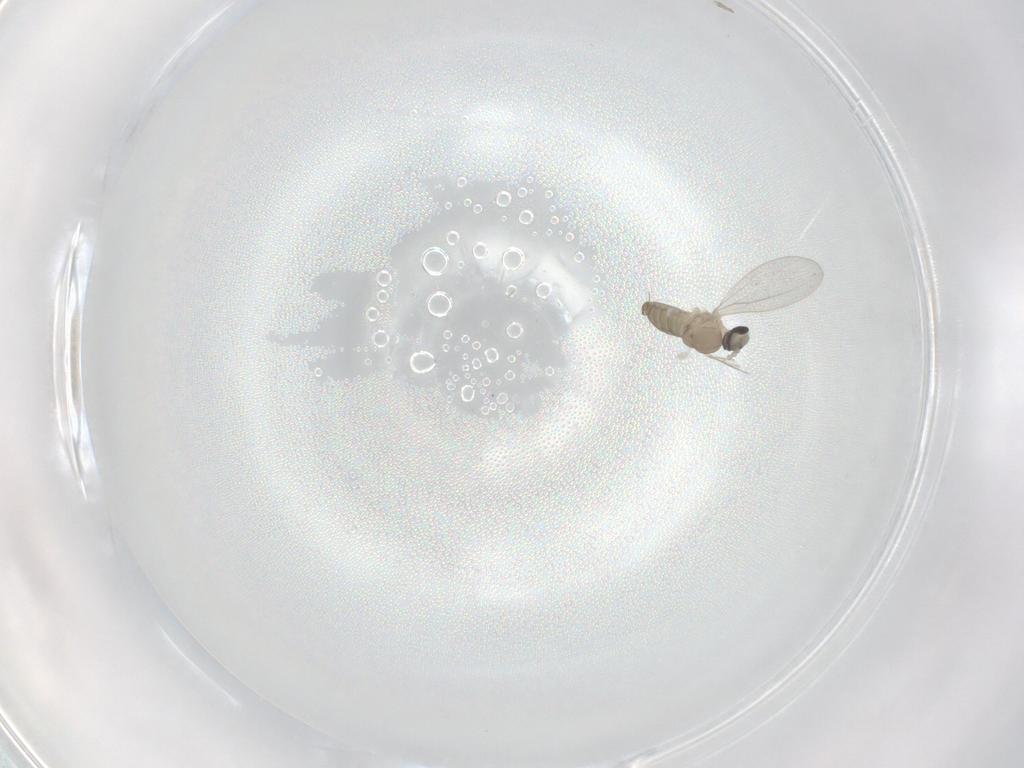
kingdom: Animalia
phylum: Arthropoda
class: Insecta
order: Diptera
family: Cecidomyiidae
